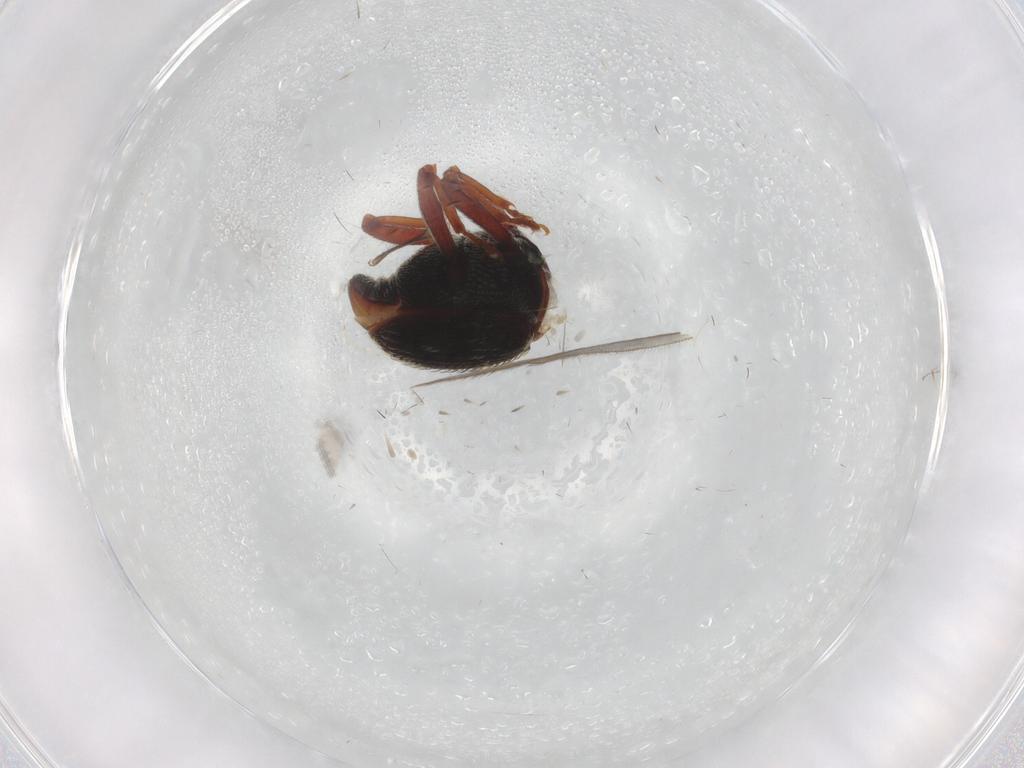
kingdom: Animalia
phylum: Arthropoda
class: Insecta
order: Coleoptera
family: Curculionidae
